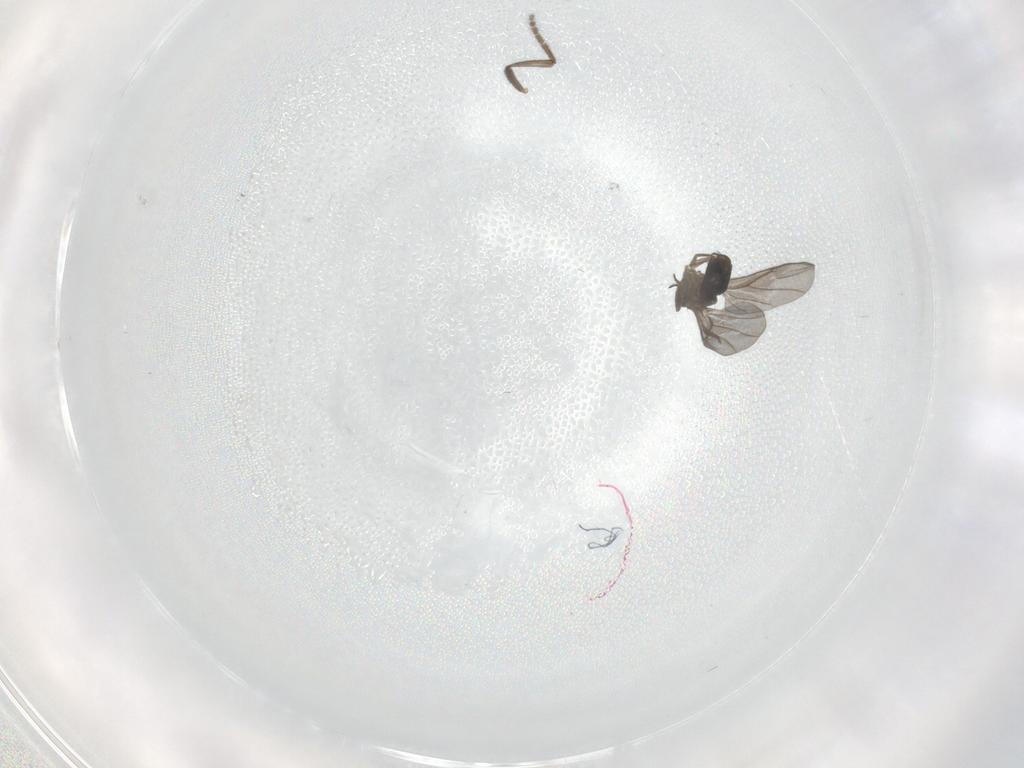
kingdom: Animalia
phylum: Arthropoda
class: Insecta
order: Diptera
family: Phoridae
